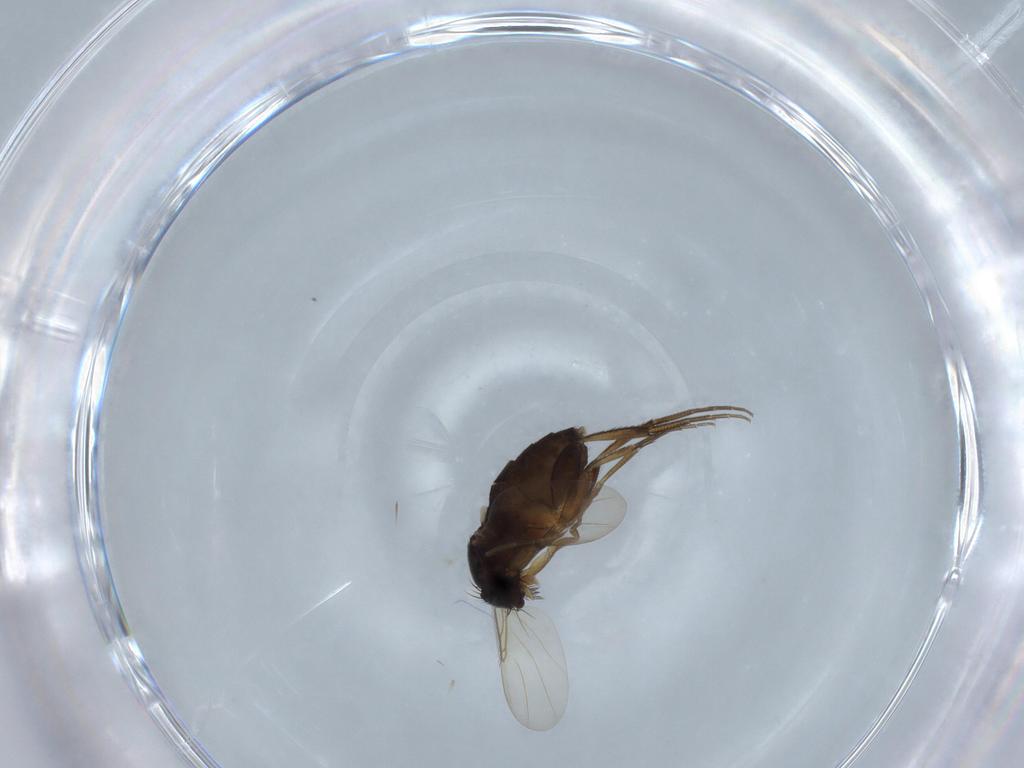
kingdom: Animalia
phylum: Arthropoda
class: Insecta
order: Diptera
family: Phoridae
